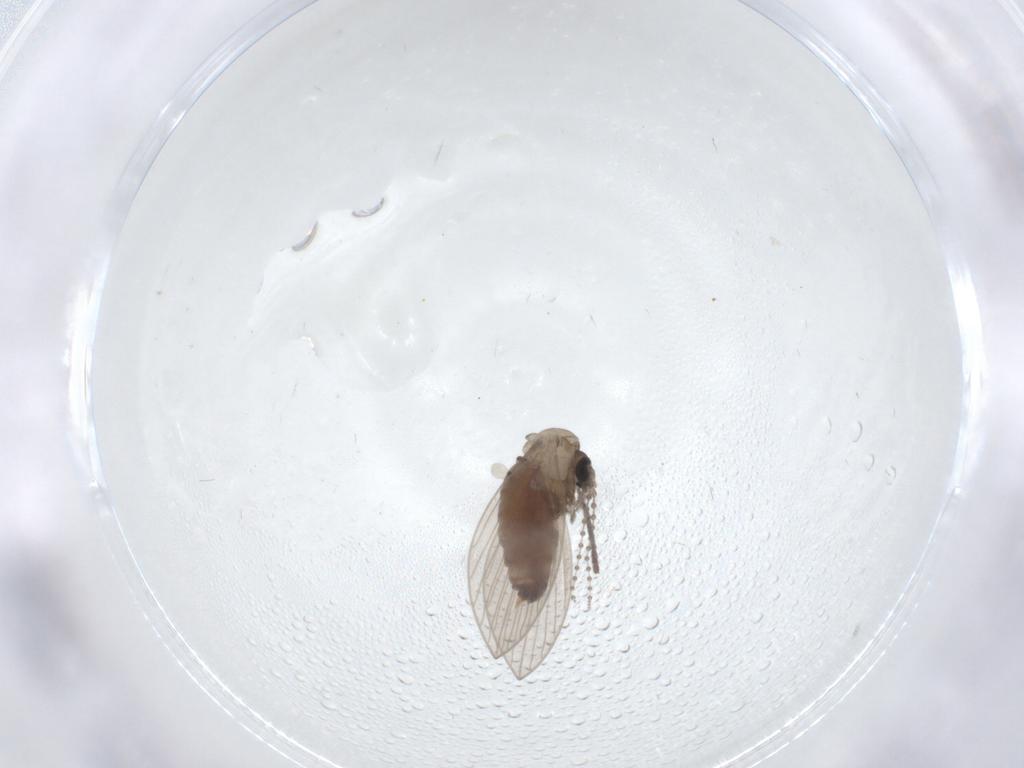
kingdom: Animalia
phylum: Arthropoda
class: Insecta
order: Diptera
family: Psychodidae
